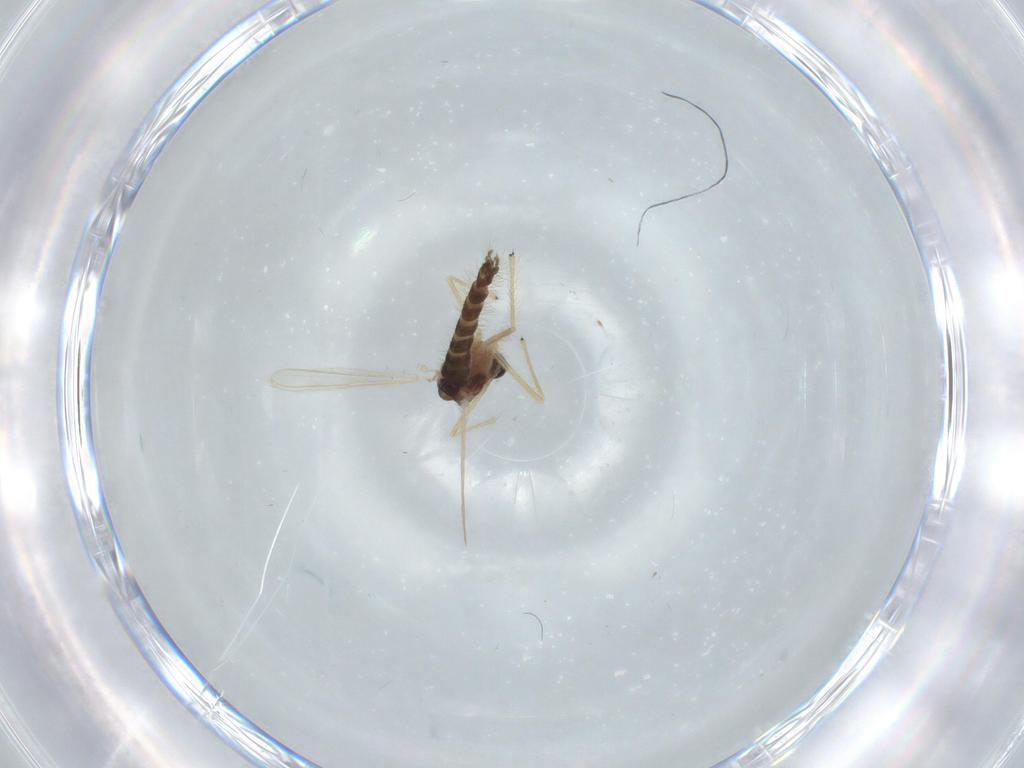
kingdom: Animalia
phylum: Arthropoda
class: Insecta
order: Diptera
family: Chironomidae
